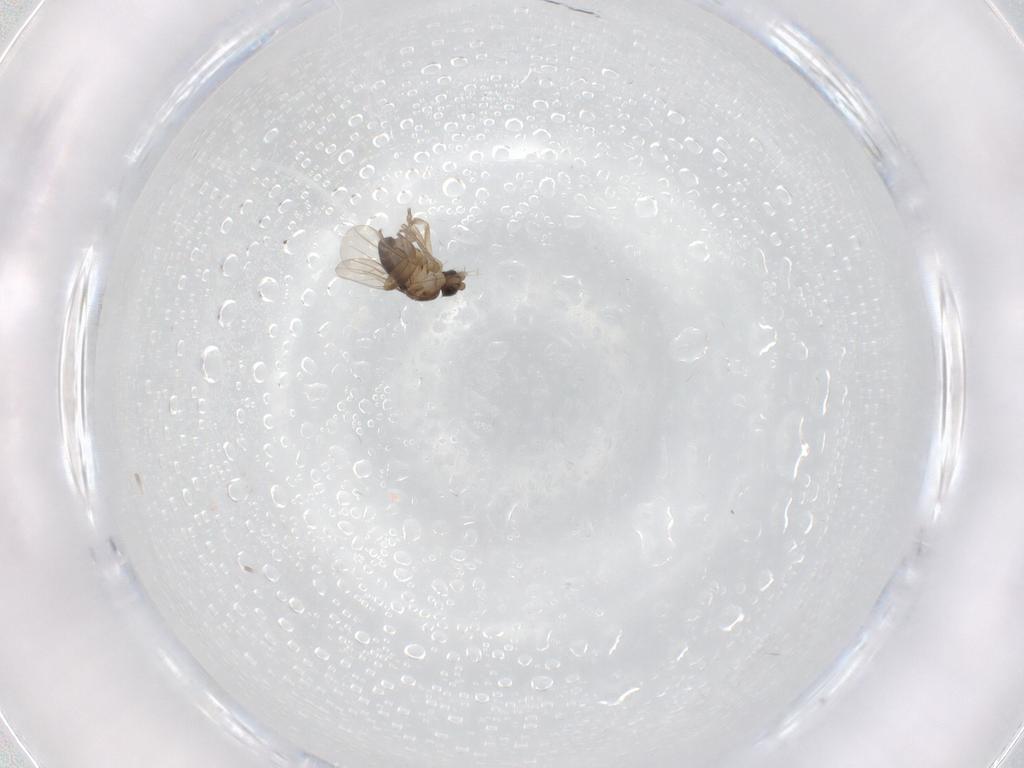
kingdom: Animalia
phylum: Arthropoda
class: Insecta
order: Diptera
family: Phoridae
